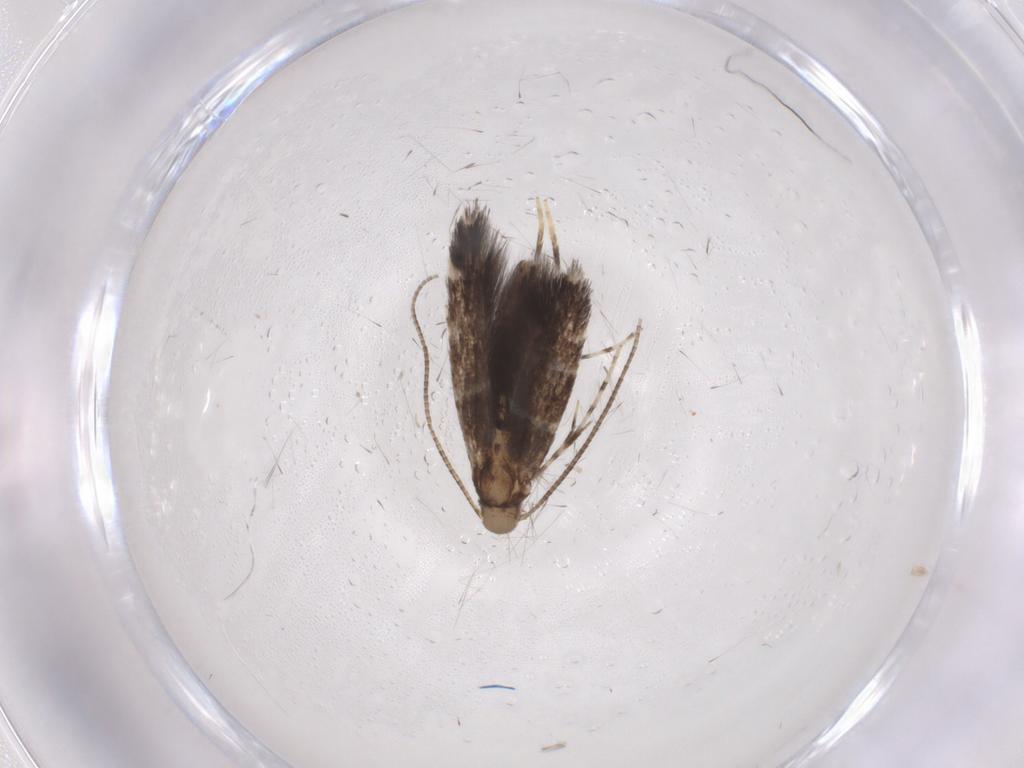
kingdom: Animalia
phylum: Arthropoda
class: Insecta
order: Lepidoptera
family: Gracillariidae
